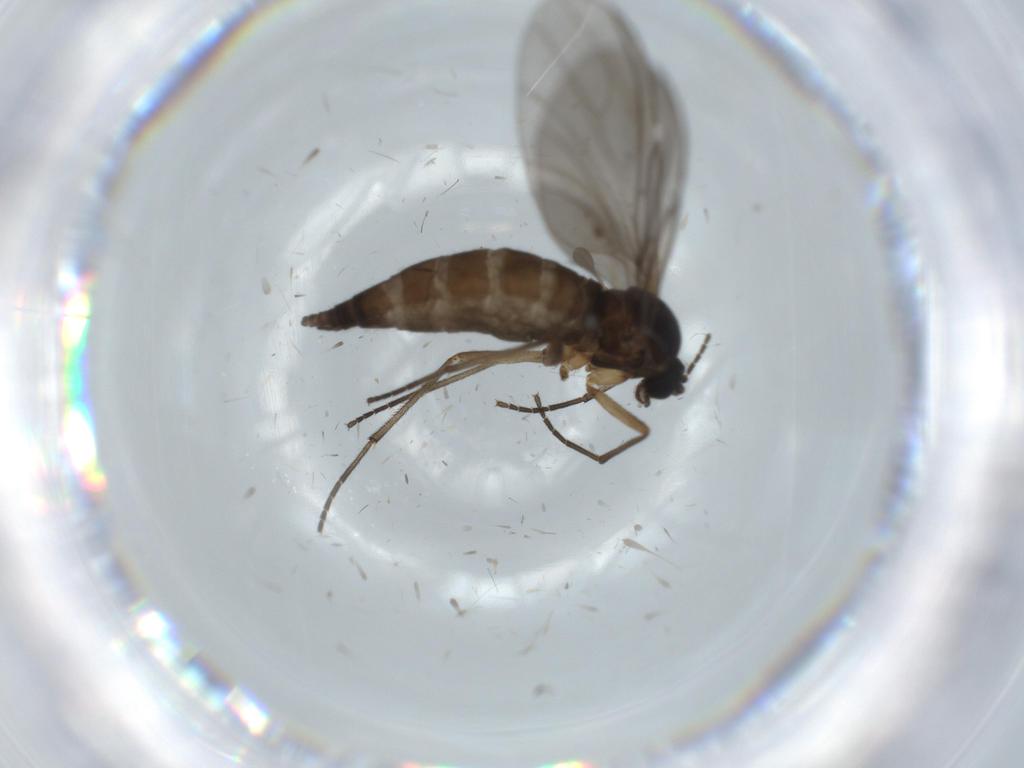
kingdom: Animalia
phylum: Arthropoda
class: Insecta
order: Diptera
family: Sciaridae
